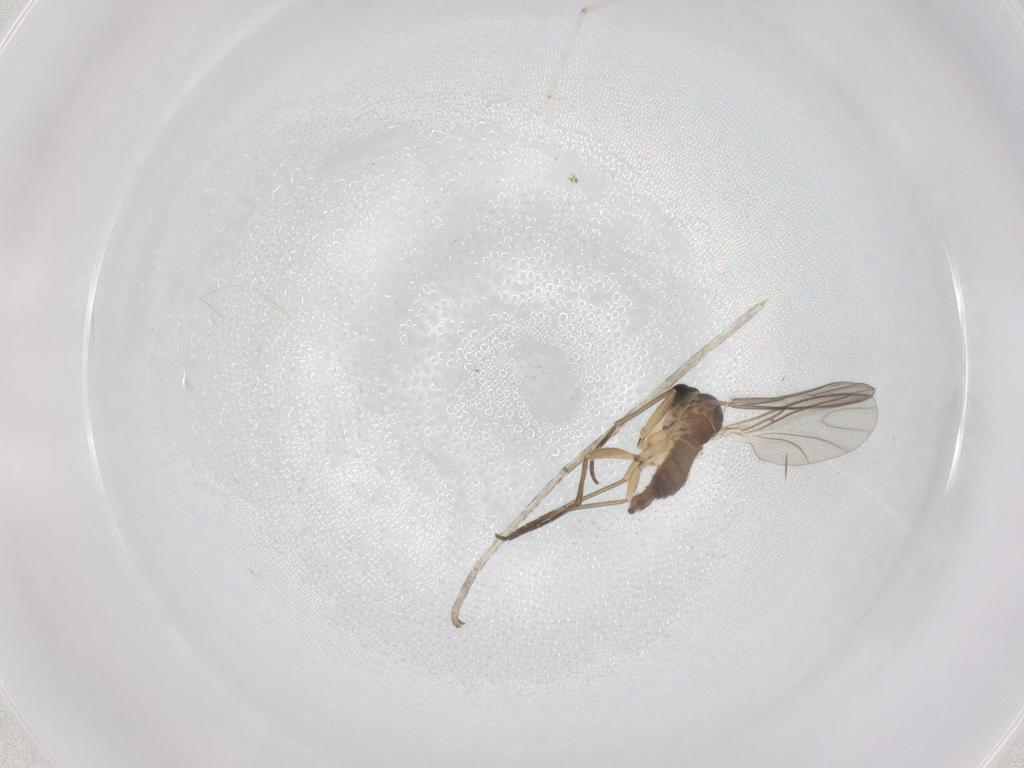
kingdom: Animalia
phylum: Arthropoda
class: Insecta
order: Diptera
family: Sciaridae
